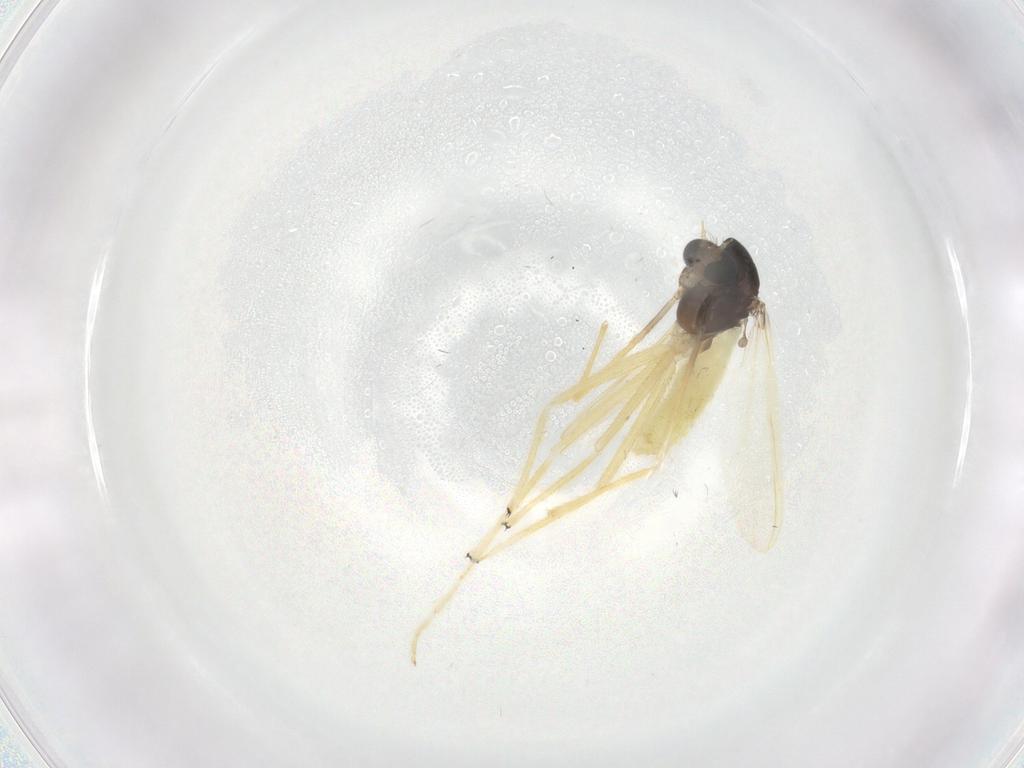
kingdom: Animalia
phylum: Arthropoda
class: Insecta
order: Diptera
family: Chironomidae
